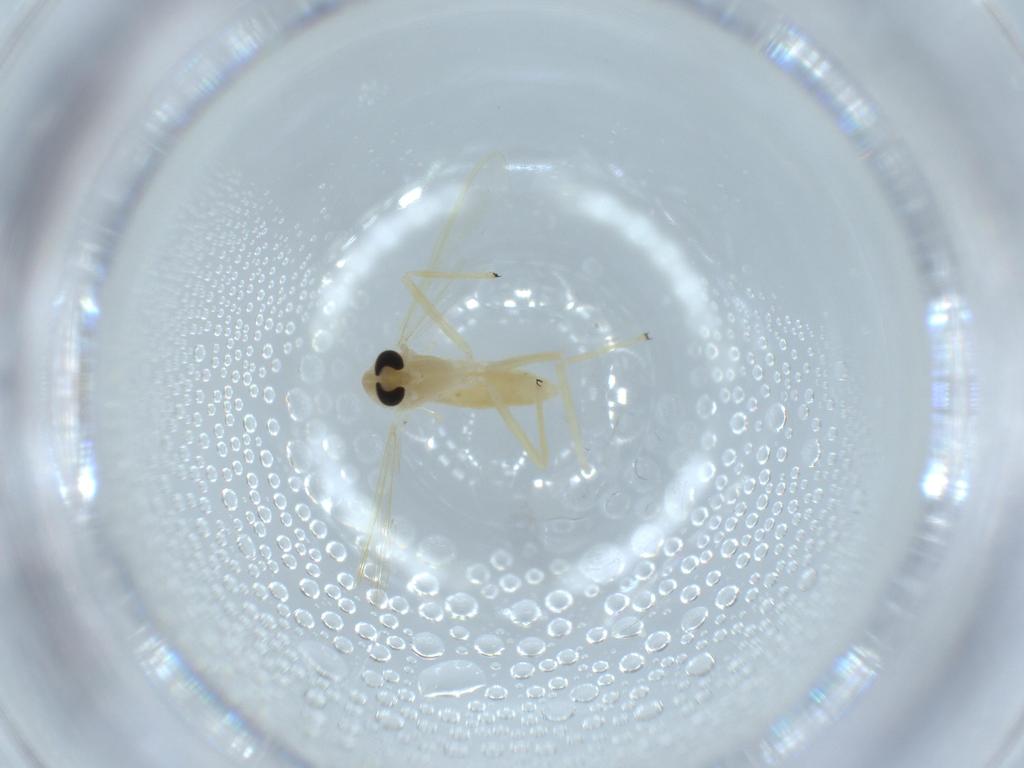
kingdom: Animalia
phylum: Arthropoda
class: Insecta
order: Diptera
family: Chironomidae
